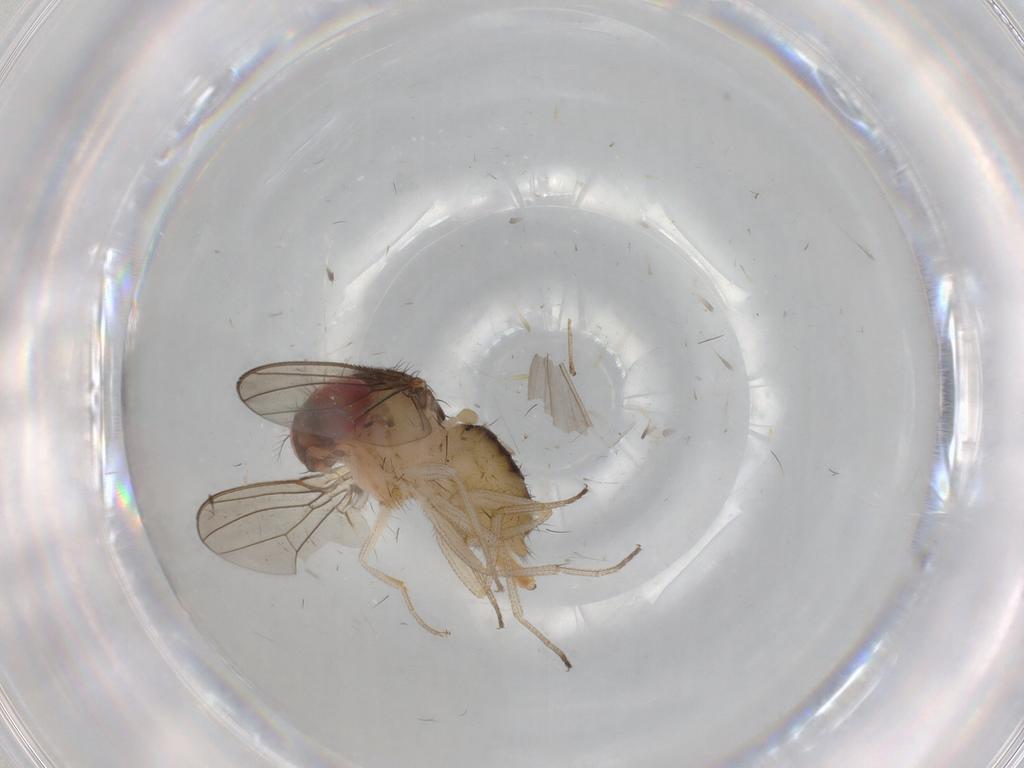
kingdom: Animalia
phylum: Arthropoda
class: Insecta
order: Diptera
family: Drosophilidae
